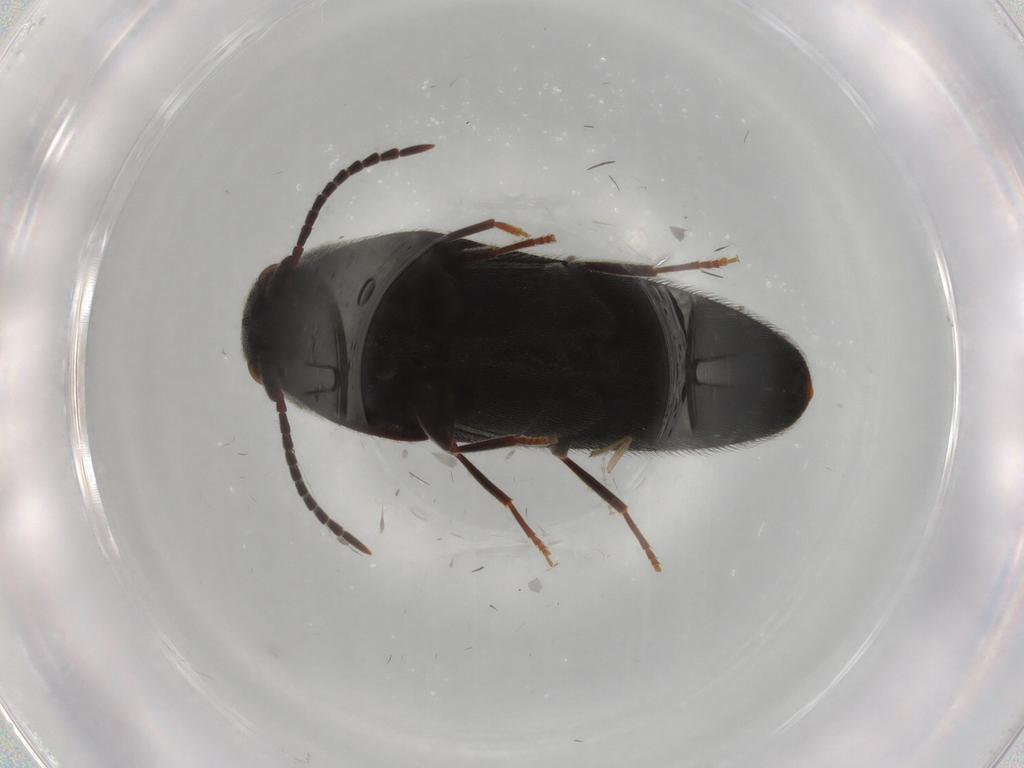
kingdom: Animalia
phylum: Arthropoda
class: Insecta
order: Coleoptera
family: Eucnemidae
